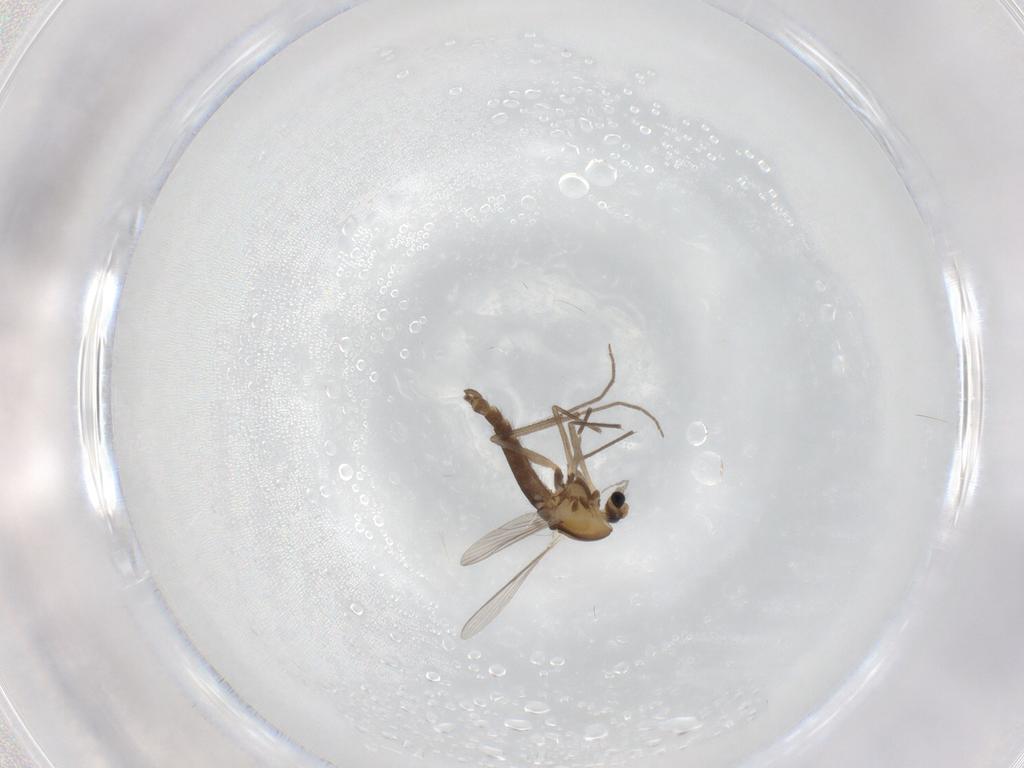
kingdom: Animalia
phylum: Arthropoda
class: Insecta
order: Diptera
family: Chironomidae
